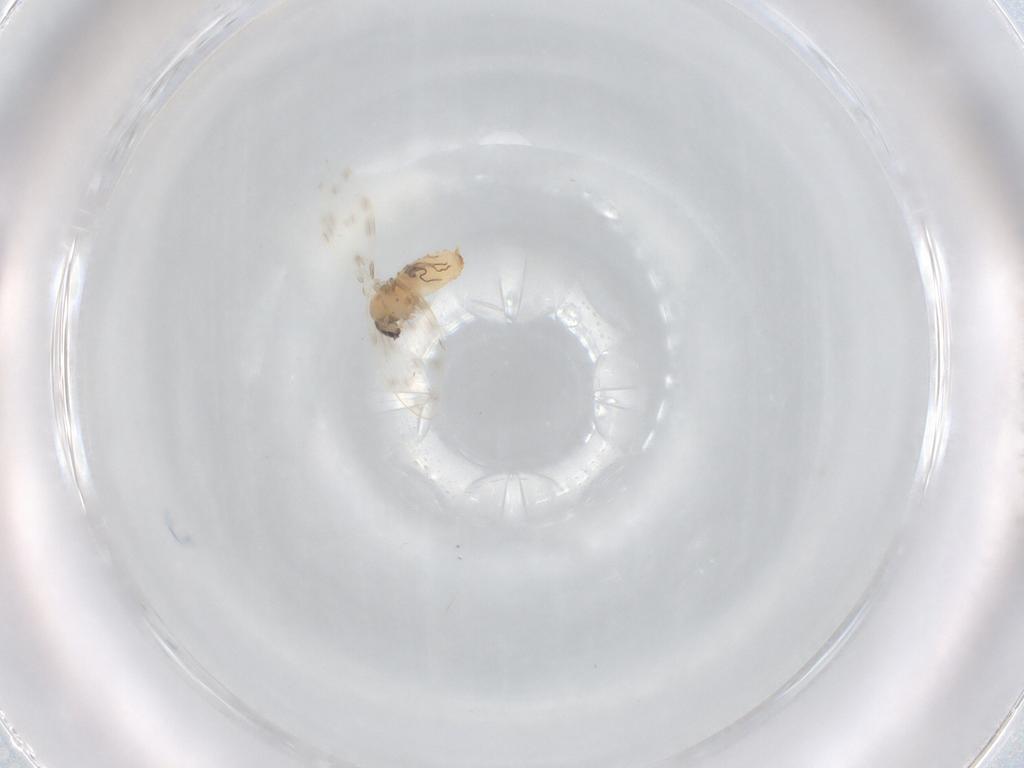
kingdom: Animalia
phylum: Arthropoda
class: Insecta
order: Diptera
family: Psychodidae
